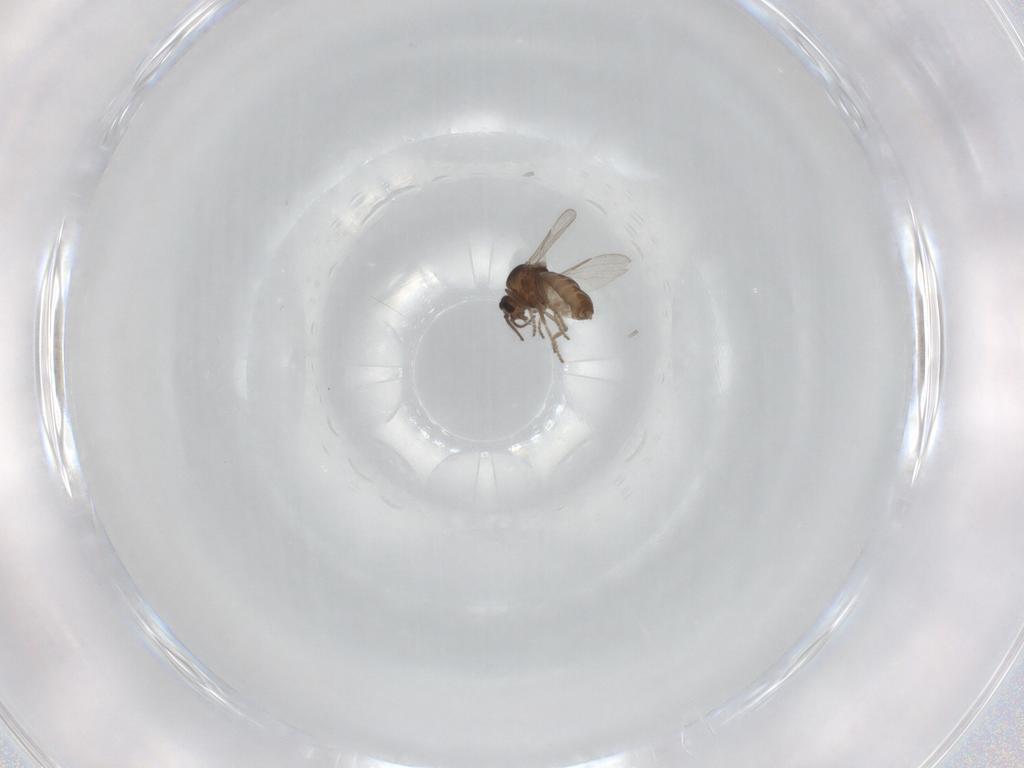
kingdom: Animalia
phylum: Arthropoda
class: Insecta
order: Diptera
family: Ceratopogonidae
